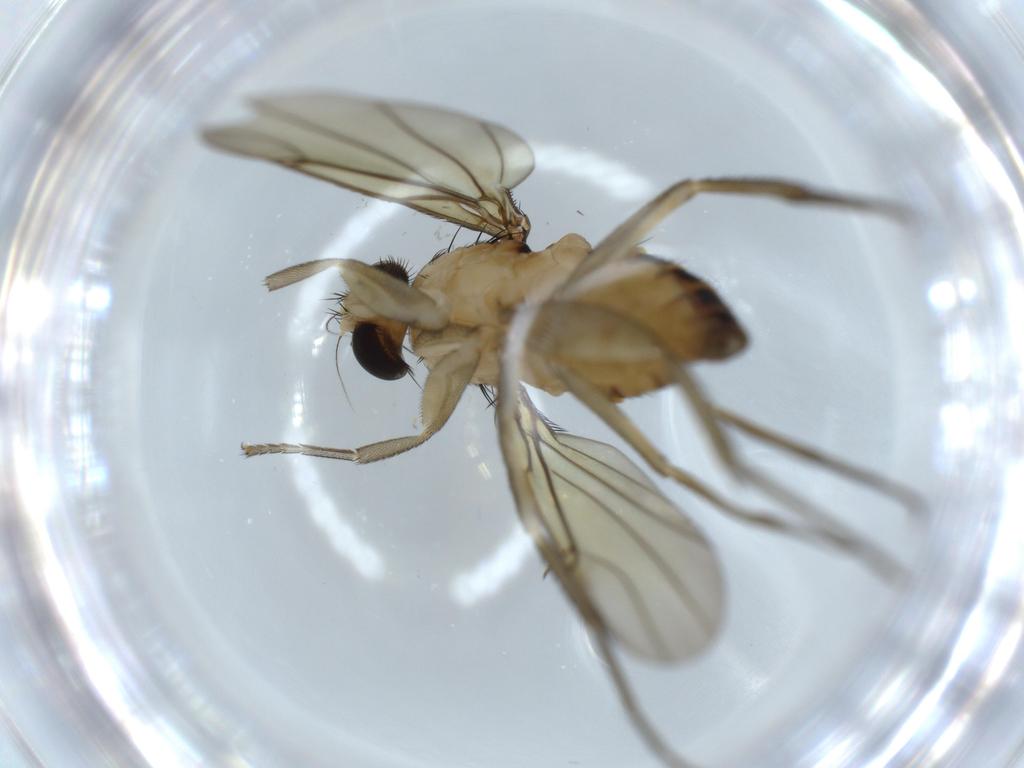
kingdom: Animalia
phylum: Arthropoda
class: Insecta
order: Diptera
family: Sciaridae
